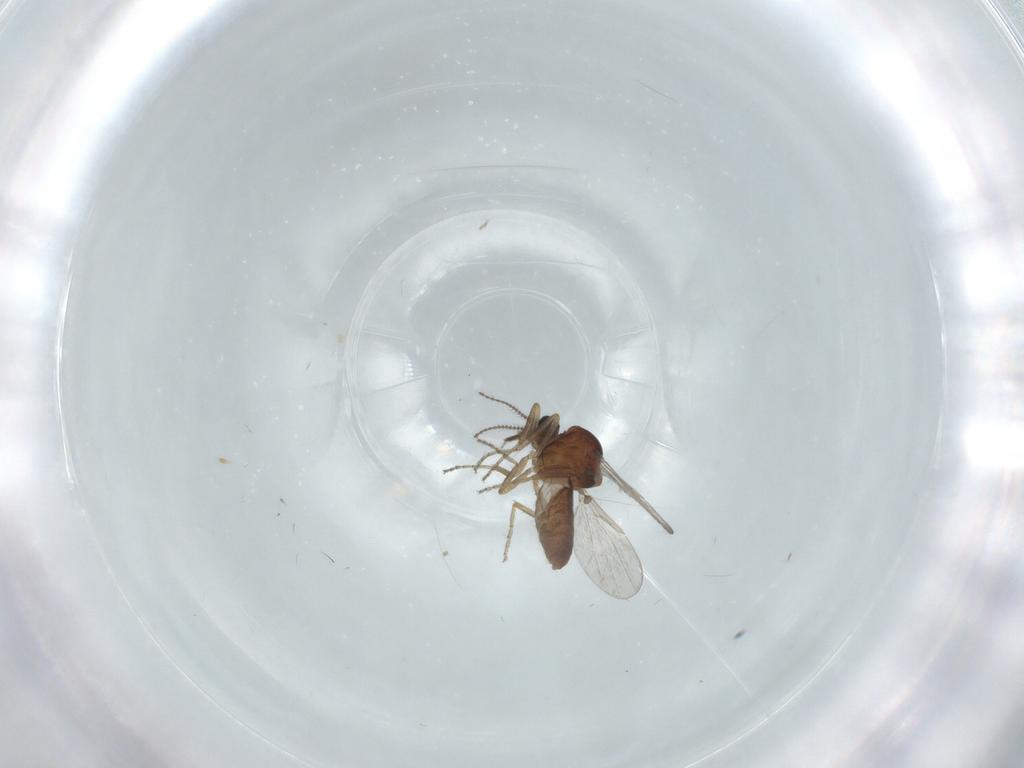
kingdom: Animalia
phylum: Arthropoda
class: Insecta
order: Diptera
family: Ceratopogonidae
